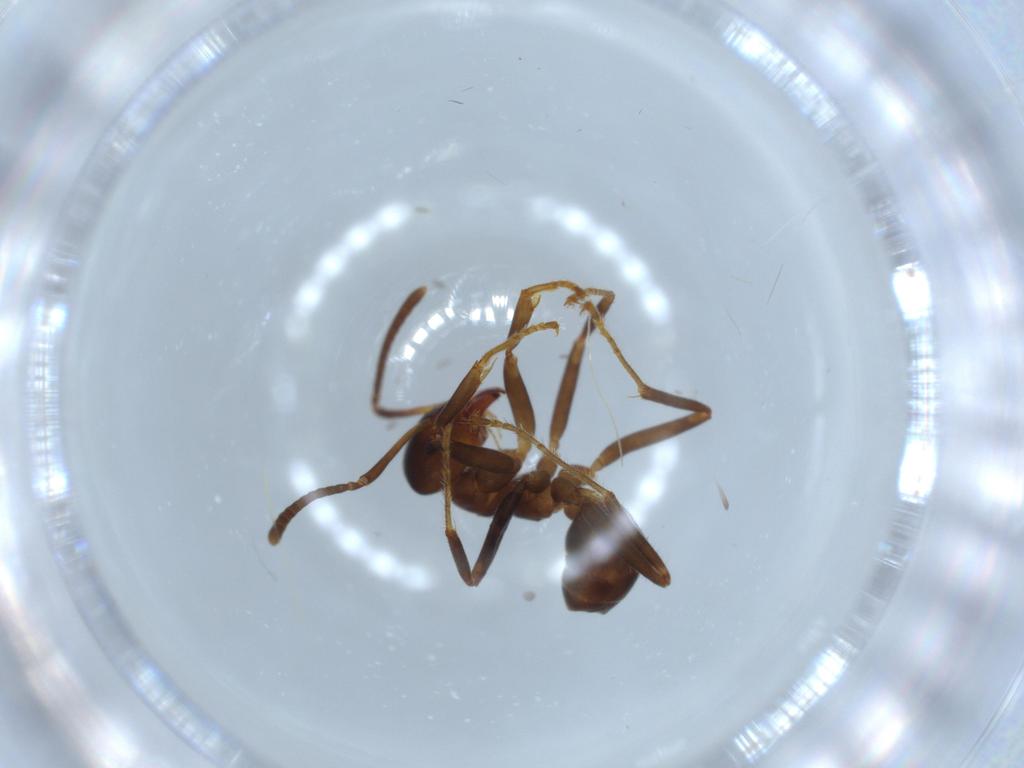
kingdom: Animalia
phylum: Arthropoda
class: Insecta
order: Hymenoptera
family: Formicidae
